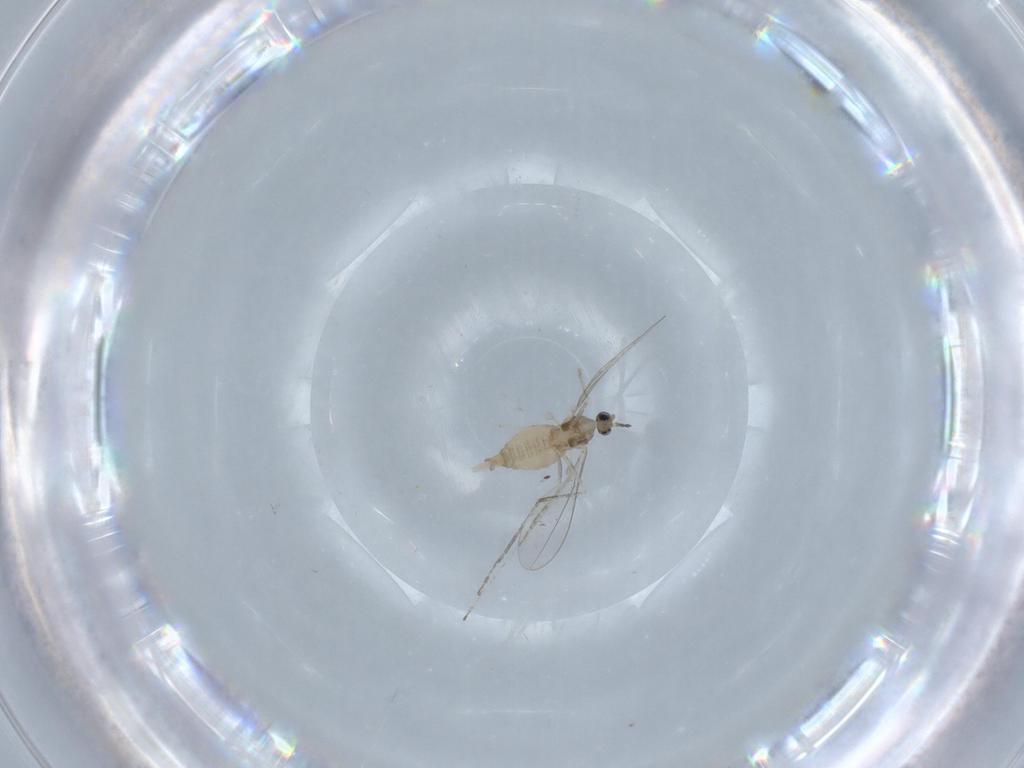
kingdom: Animalia
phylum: Arthropoda
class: Insecta
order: Diptera
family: Cecidomyiidae
